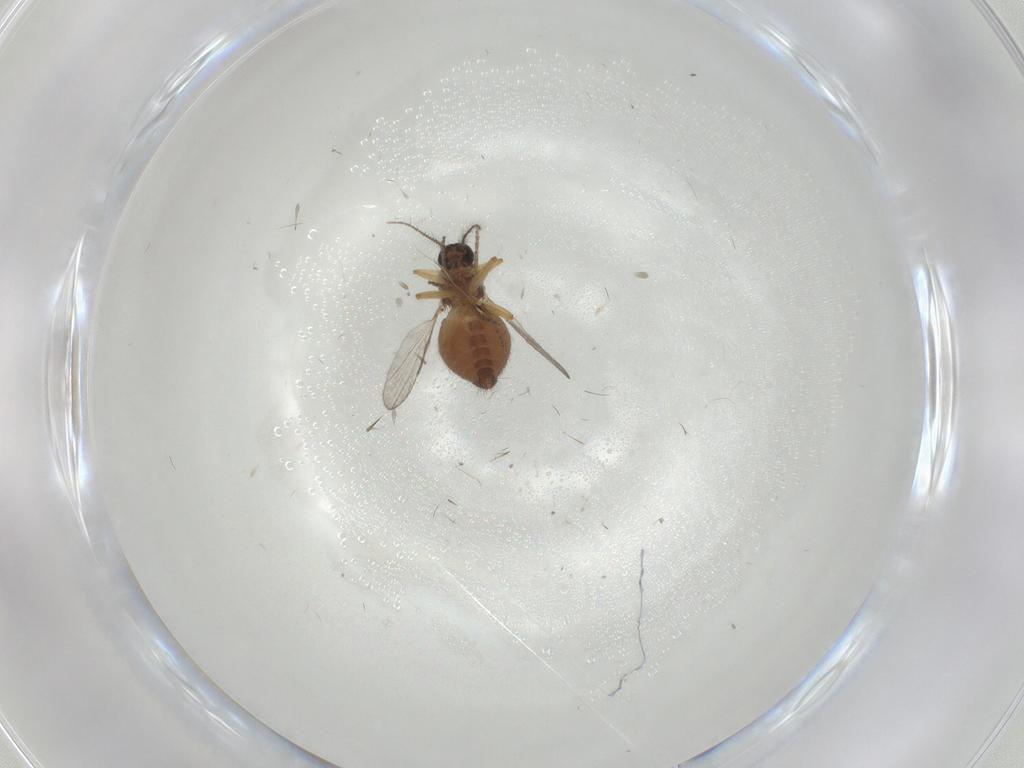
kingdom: Animalia
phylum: Arthropoda
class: Insecta
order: Diptera
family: Ceratopogonidae
